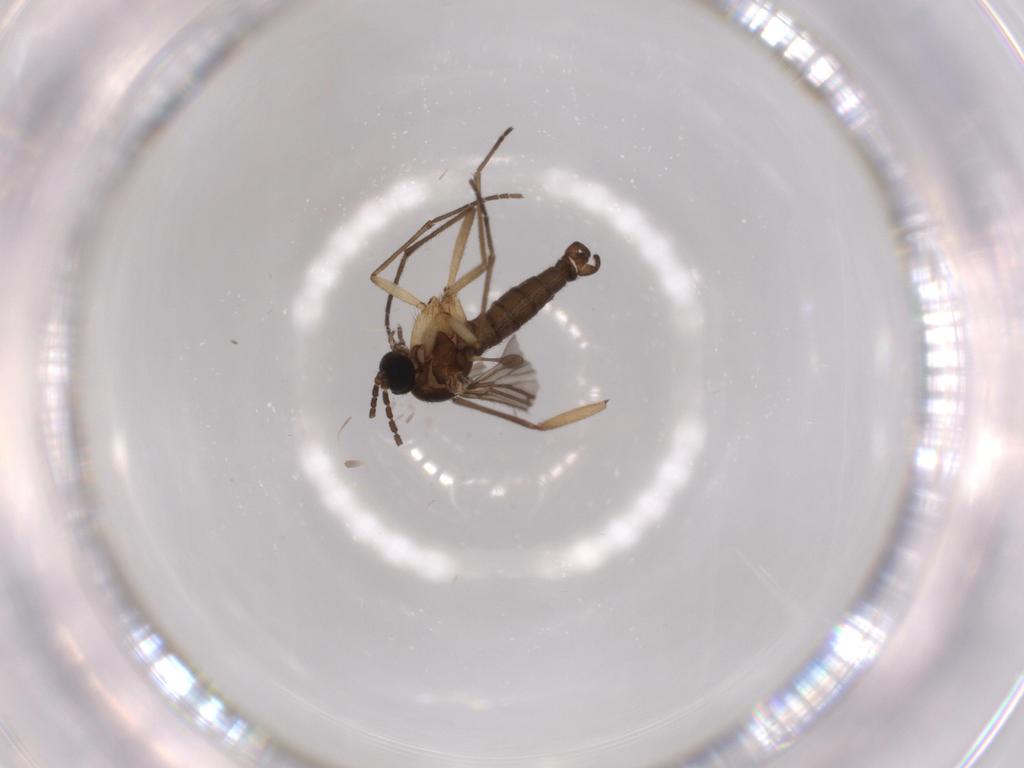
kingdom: Animalia
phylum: Arthropoda
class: Insecta
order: Diptera
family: Chironomidae
